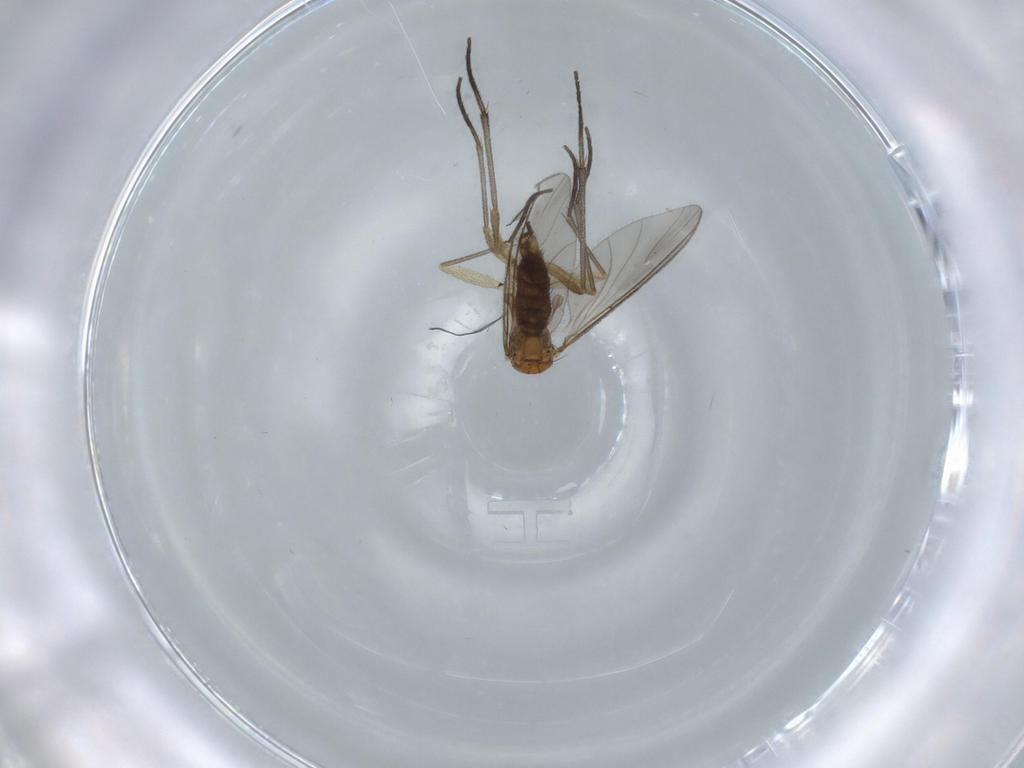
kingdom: Animalia
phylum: Arthropoda
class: Insecta
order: Diptera
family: Sciaridae
